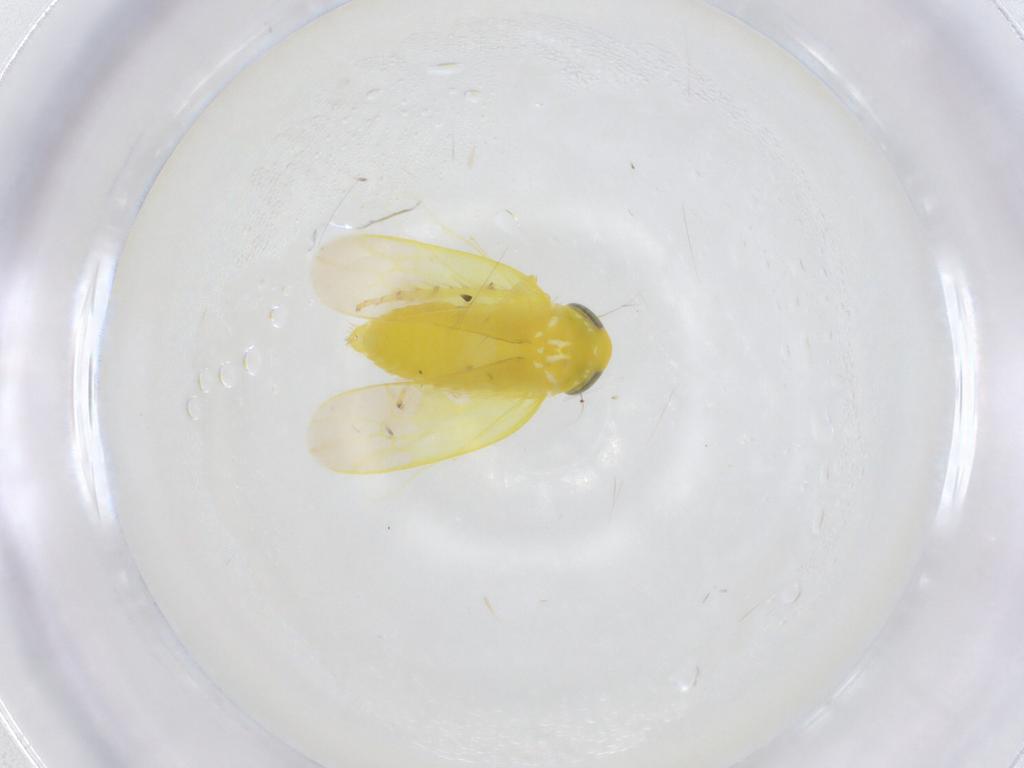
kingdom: Animalia
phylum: Arthropoda
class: Insecta
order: Hemiptera
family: Cicadellidae
